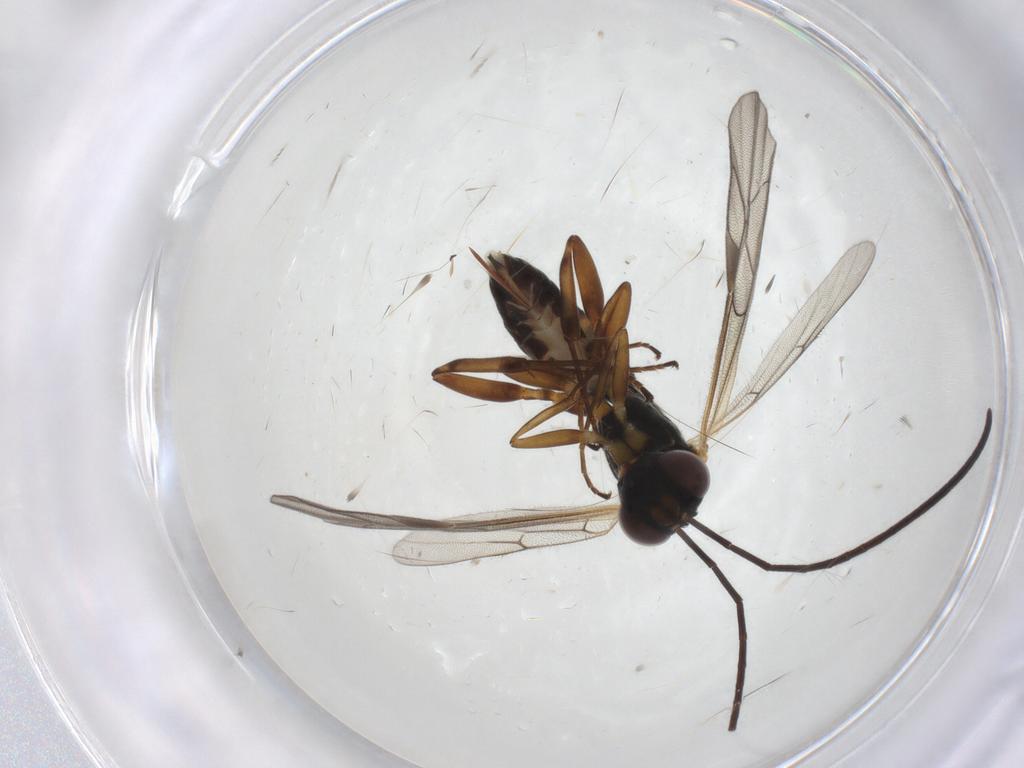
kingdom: Animalia
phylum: Arthropoda
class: Insecta
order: Hymenoptera
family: Ichneumonidae
